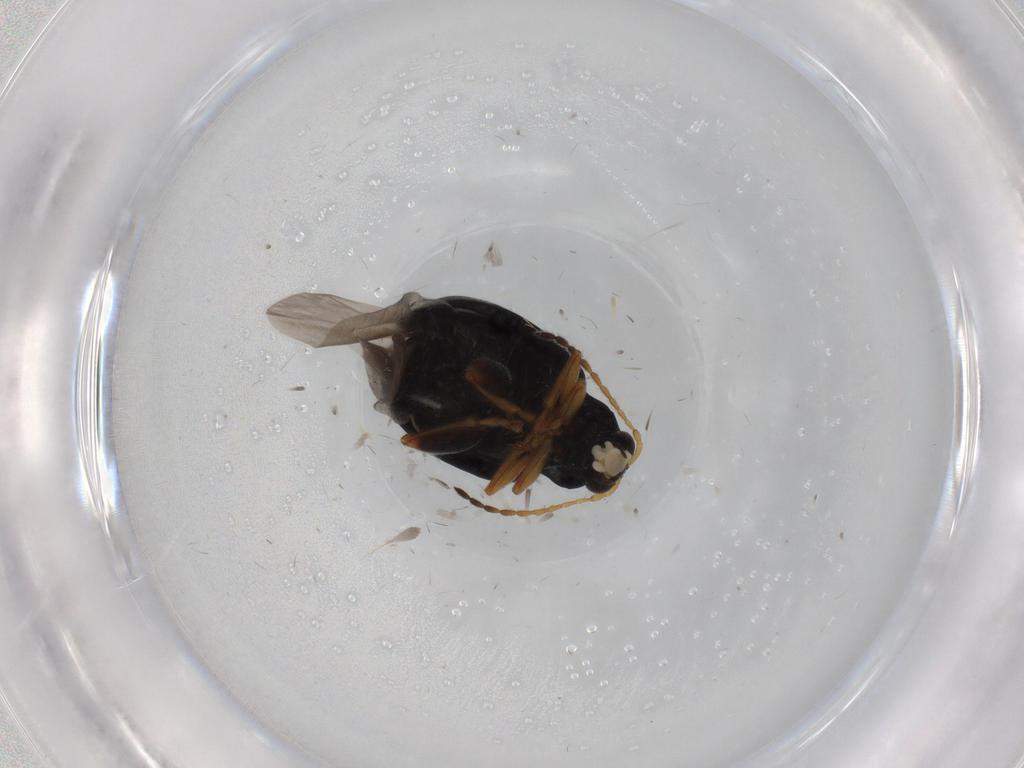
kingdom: Animalia
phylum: Arthropoda
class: Insecta
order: Coleoptera
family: Chrysomelidae
